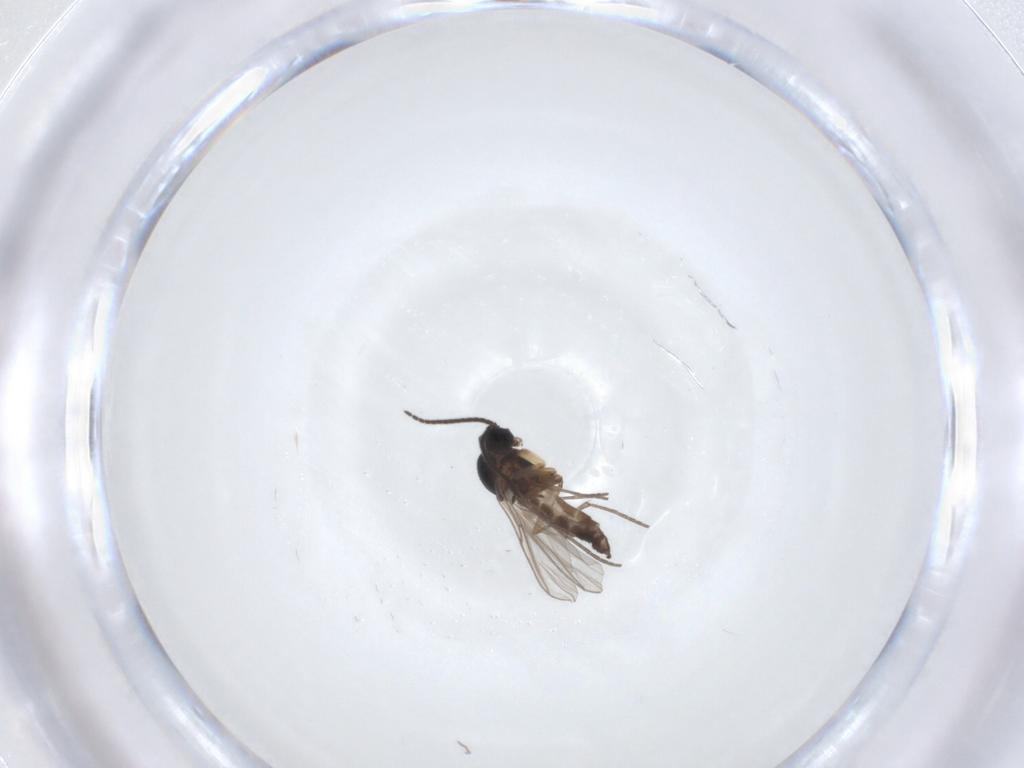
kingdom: Animalia
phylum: Arthropoda
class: Insecta
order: Diptera
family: Sciaridae
